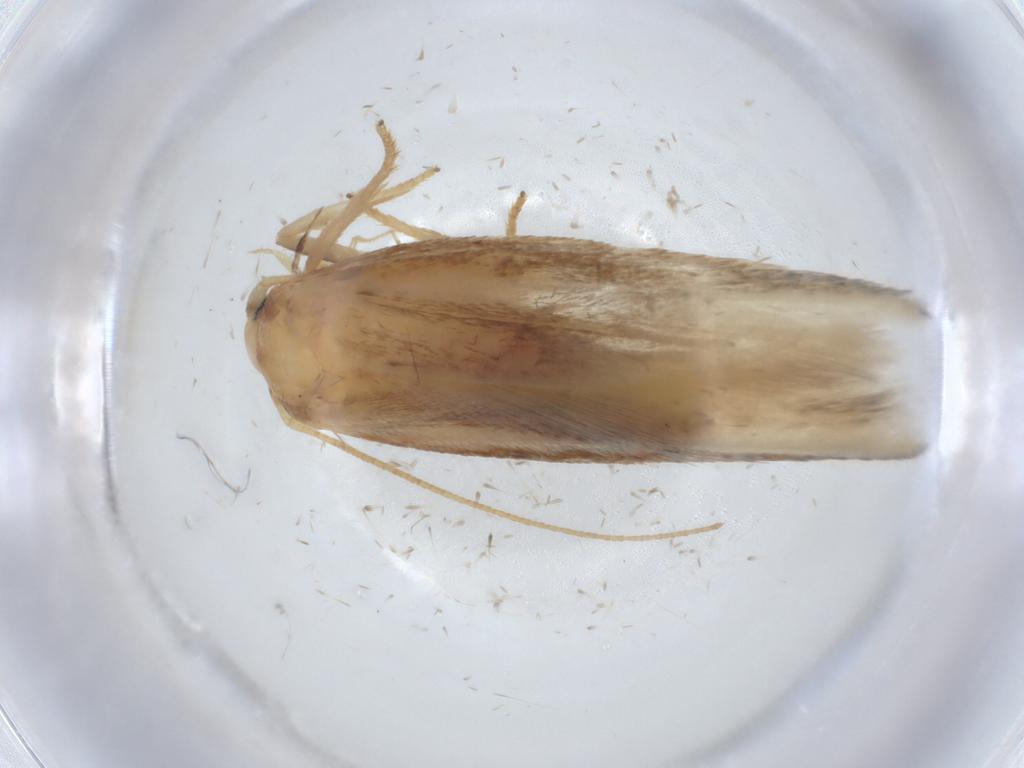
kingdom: Animalia
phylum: Arthropoda
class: Insecta
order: Lepidoptera
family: Geometridae
